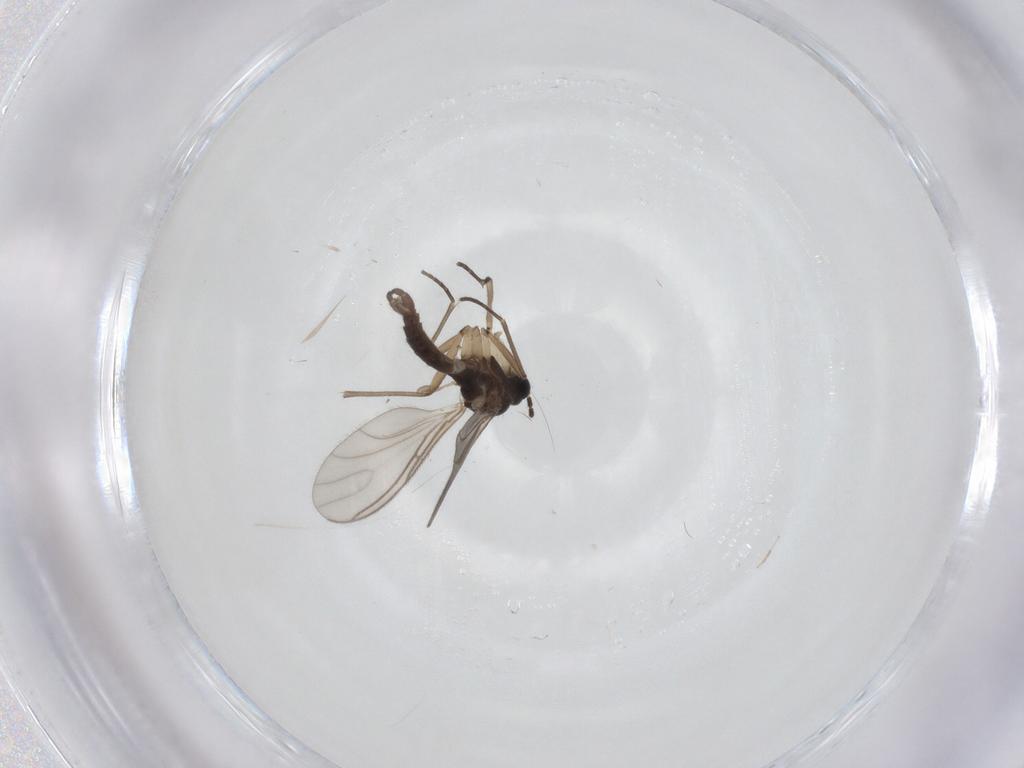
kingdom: Animalia
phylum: Arthropoda
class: Insecta
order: Diptera
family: Sciaridae
